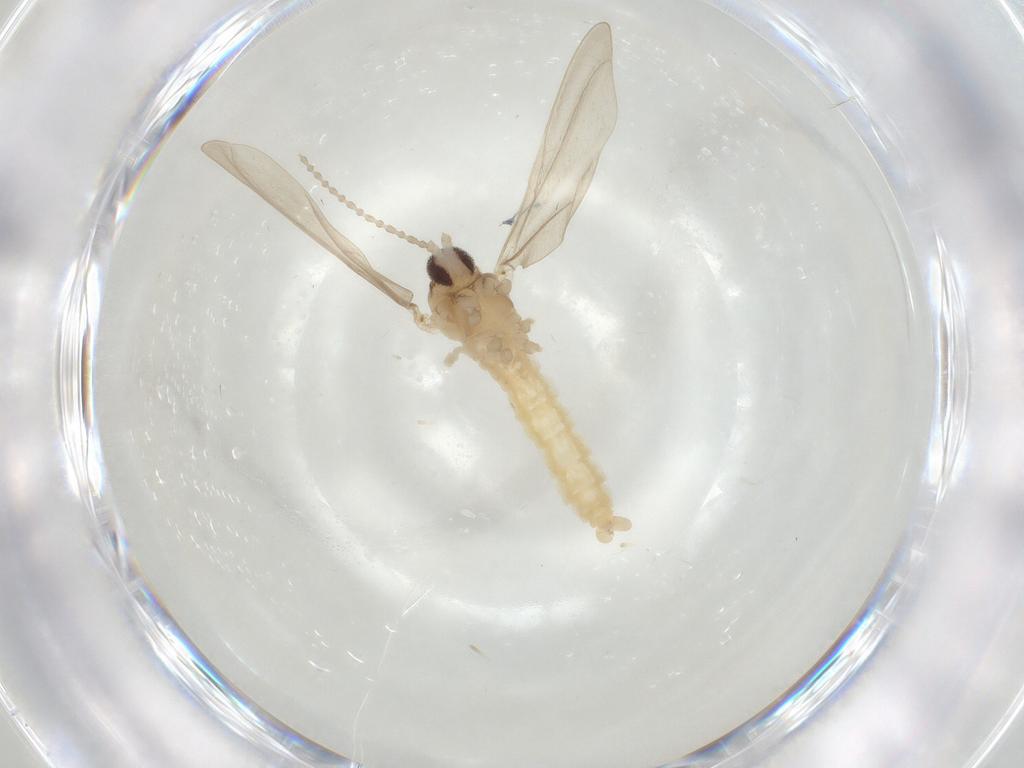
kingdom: Animalia
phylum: Arthropoda
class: Insecta
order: Diptera
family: Cecidomyiidae
